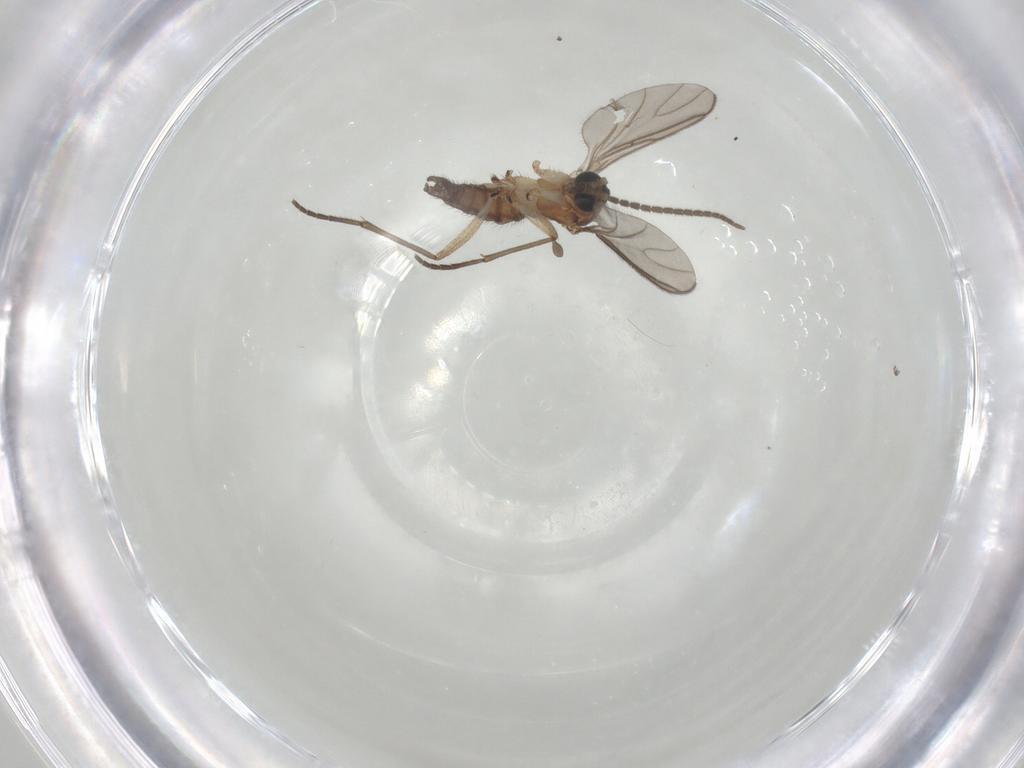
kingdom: Animalia
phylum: Arthropoda
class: Insecta
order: Diptera
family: Sciaridae
